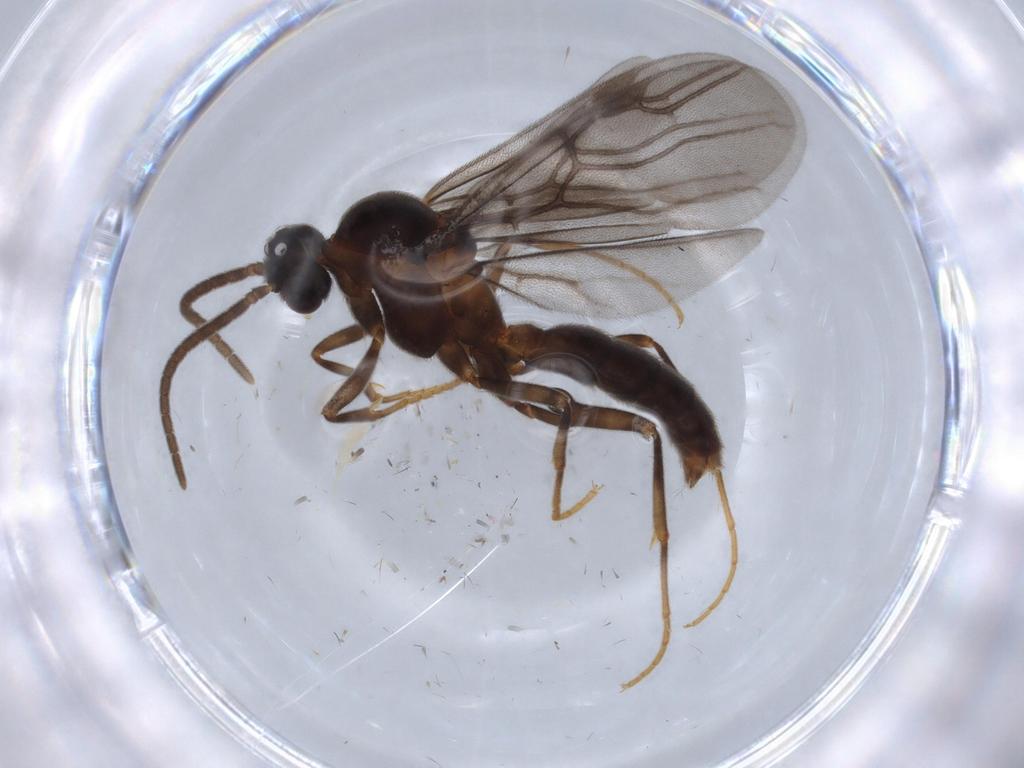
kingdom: Animalia
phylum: Arthropoda
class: Insecta
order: Hymenoptera
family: Formicidae
